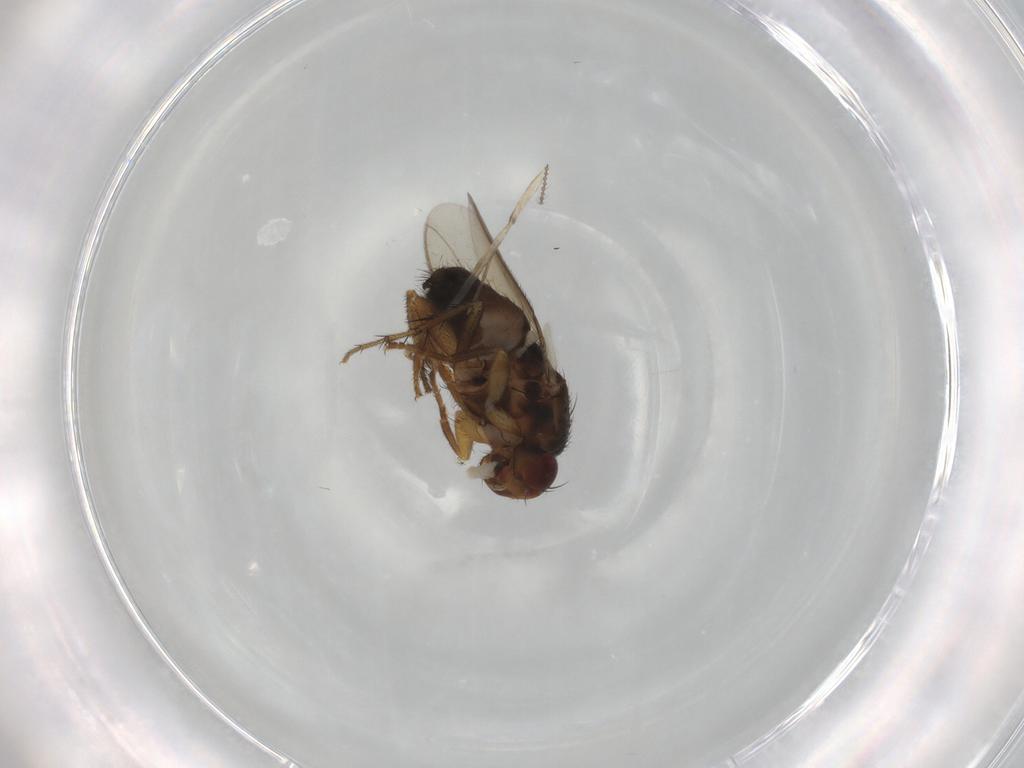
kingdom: Animalia
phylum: Arthropoda
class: Insecta
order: Diptera
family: Sphaeroceridae
